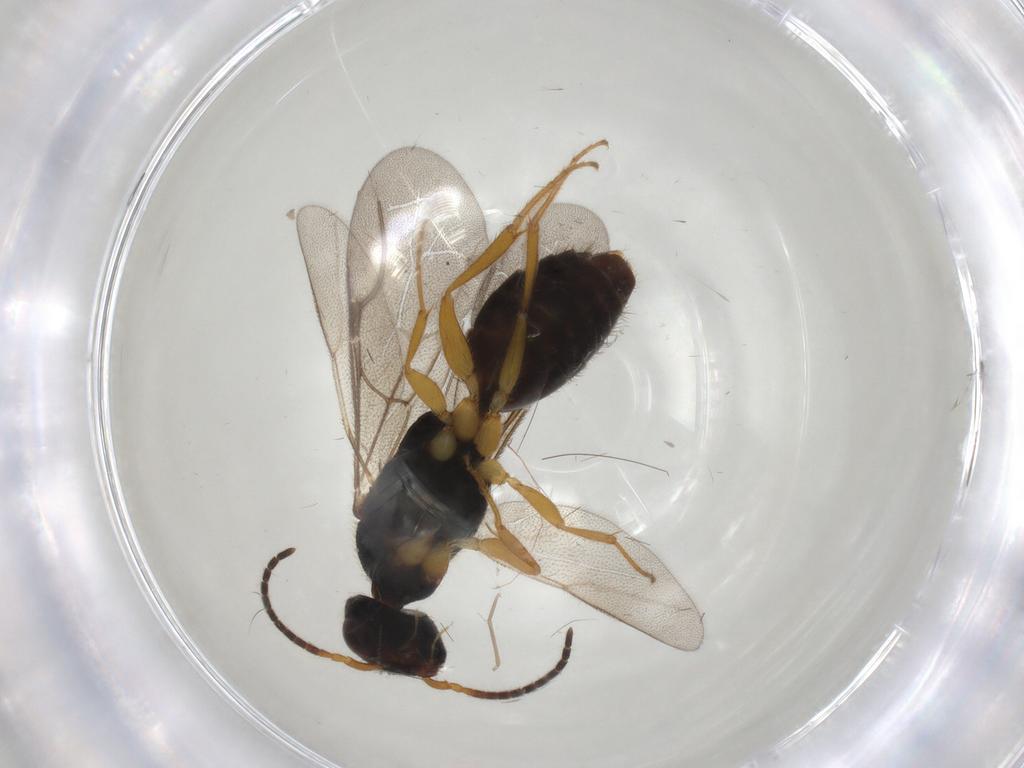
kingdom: Animalia
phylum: Arthropoda
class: Insecta
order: Hymenoptera
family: Bethylidae
